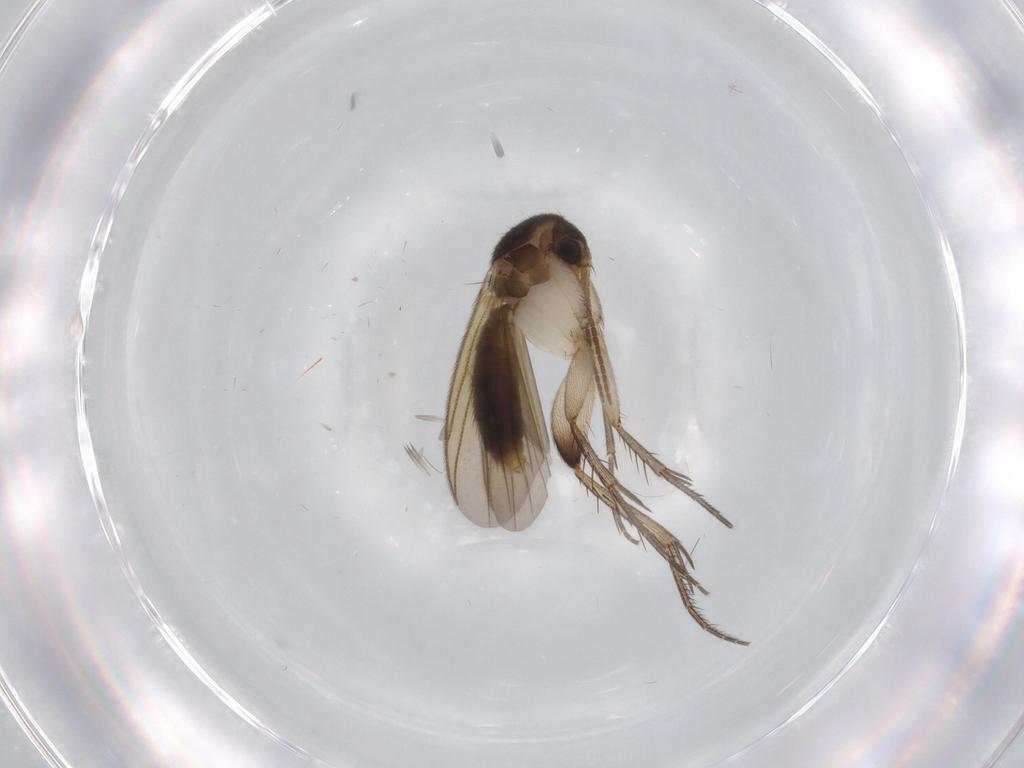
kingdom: Animalia
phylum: Arthropoda
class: Insecta
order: Diptera
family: Mycetophilidae
